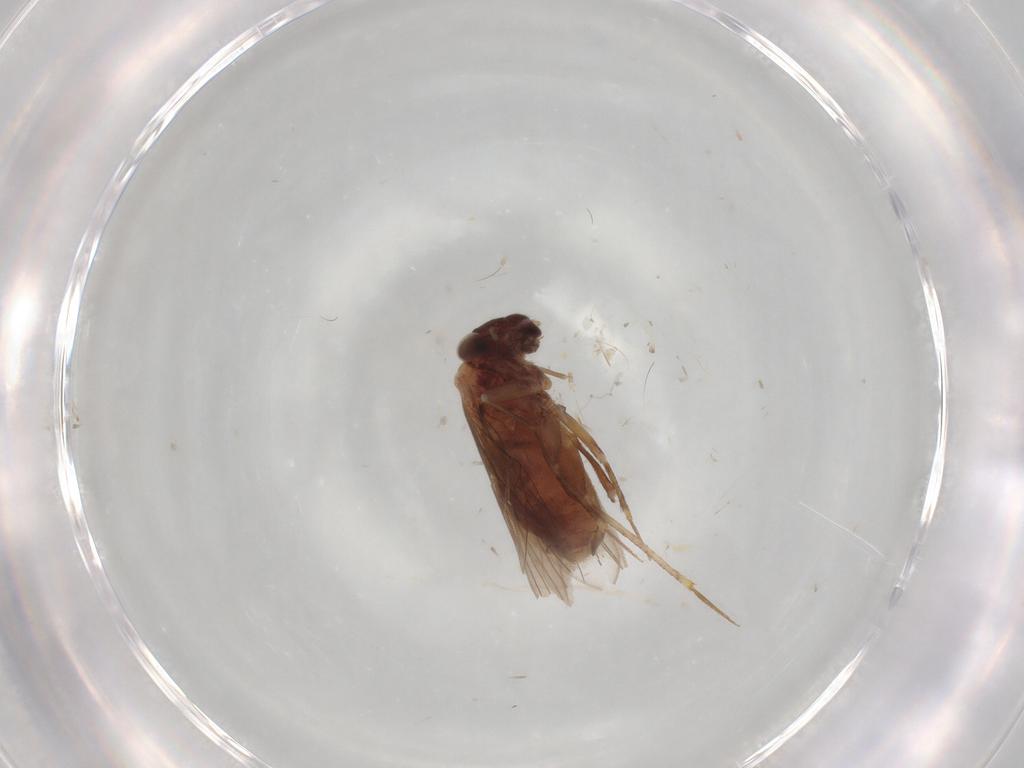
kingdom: Animalia
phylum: Arthropoda
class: Insecta
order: Psocodea
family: Lepidopsocidae
